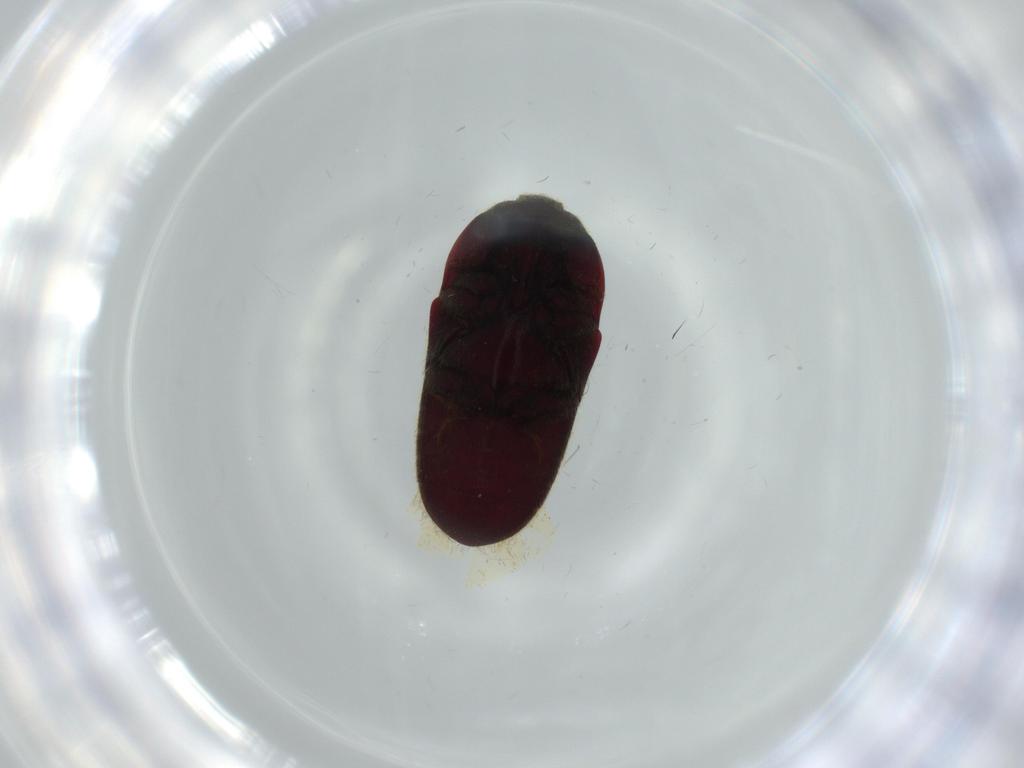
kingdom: Animalia
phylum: Arthropoda
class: Insecta
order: Coleoptera
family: Throscidae
